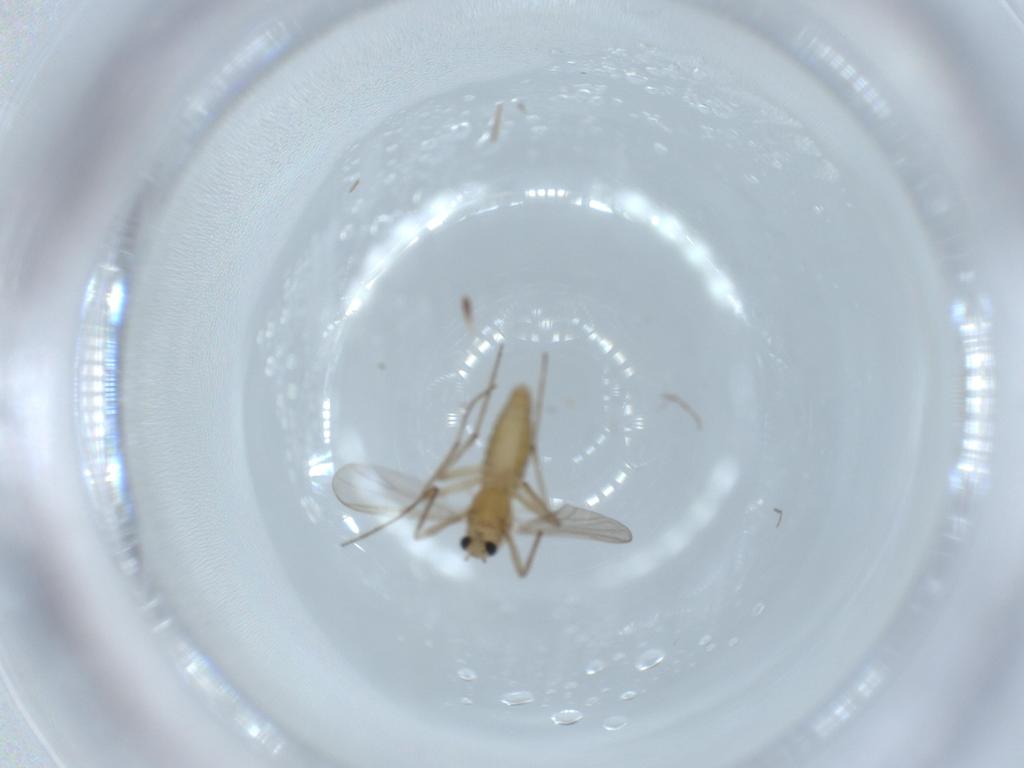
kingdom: Animalia
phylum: Arthropoda
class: Insecta
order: Diptera
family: Chironomidae
